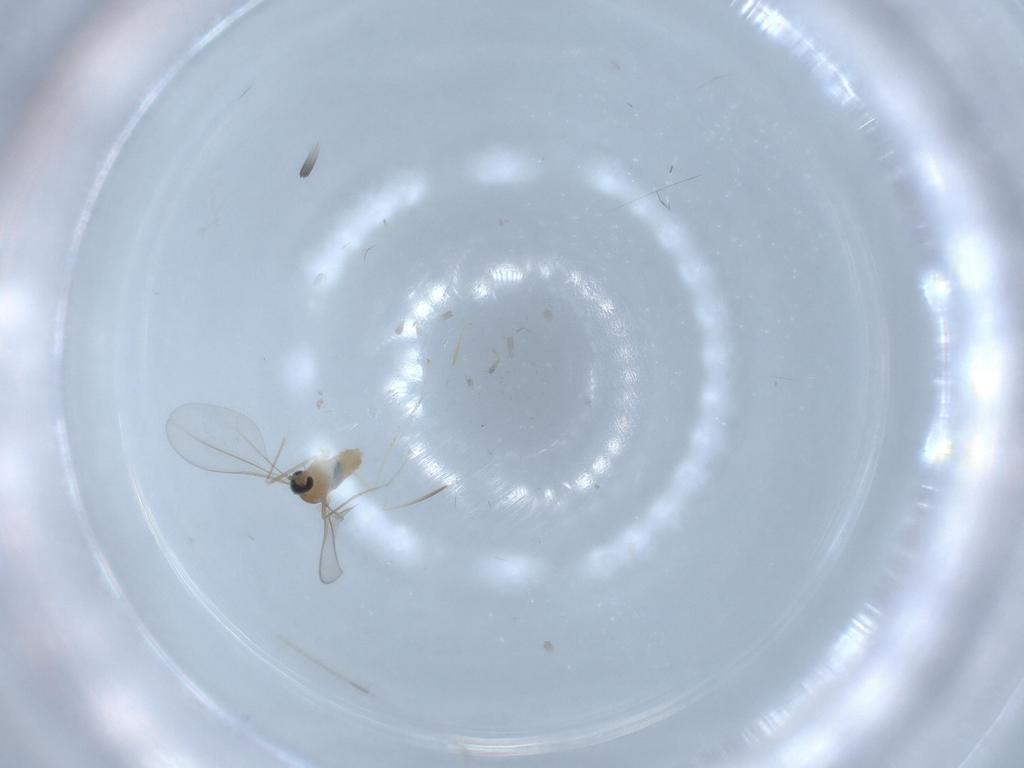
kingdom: Animalia
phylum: Arthropoda
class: Insecta
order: Diptera
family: Cecidomyiidae
